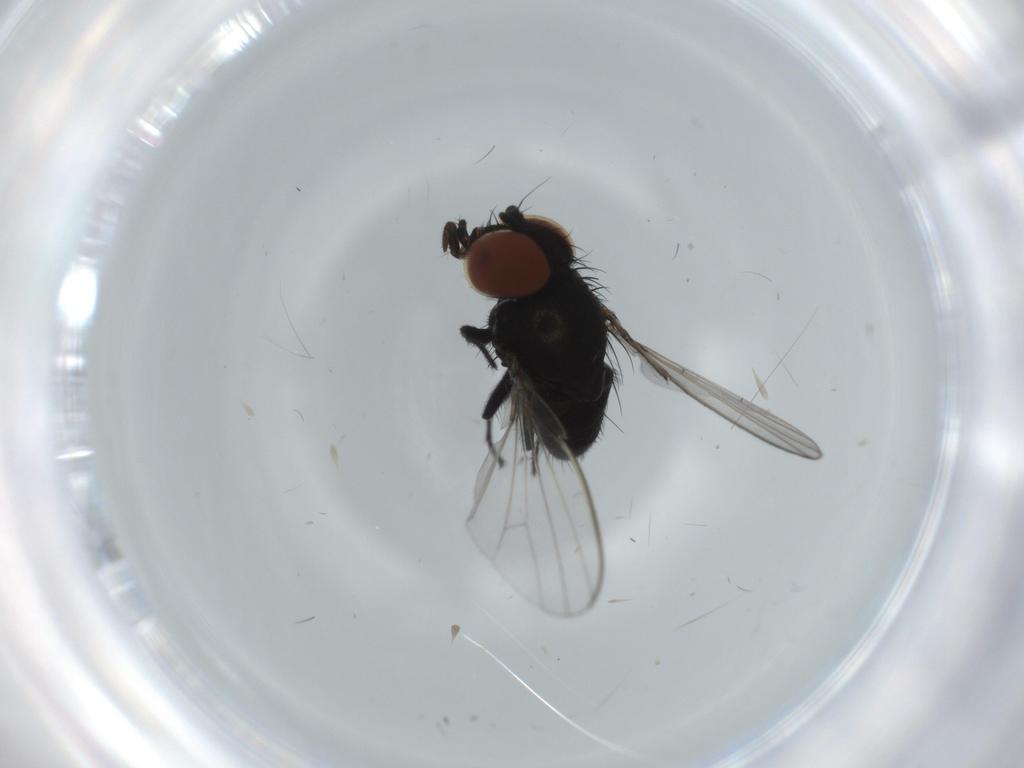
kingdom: Animalia
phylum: Arthropoda
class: Insecta
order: Diptera
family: Milichiidae
